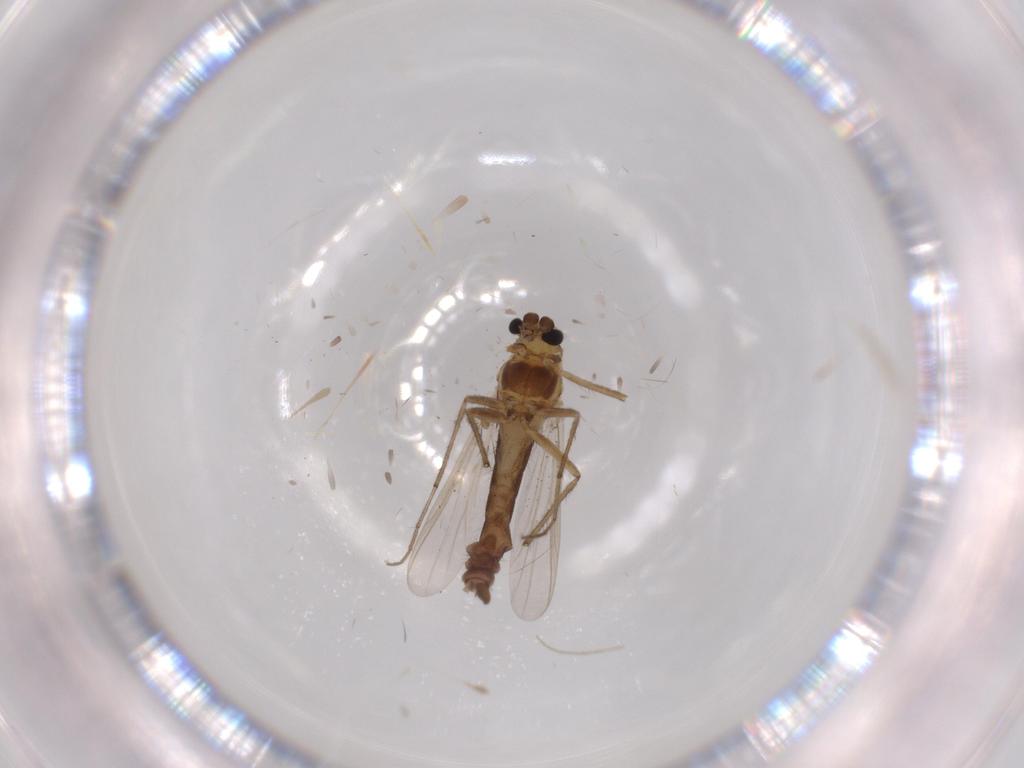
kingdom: Animalia
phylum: Arthropoda
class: Insecta
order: Diptera
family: Chironomidae
